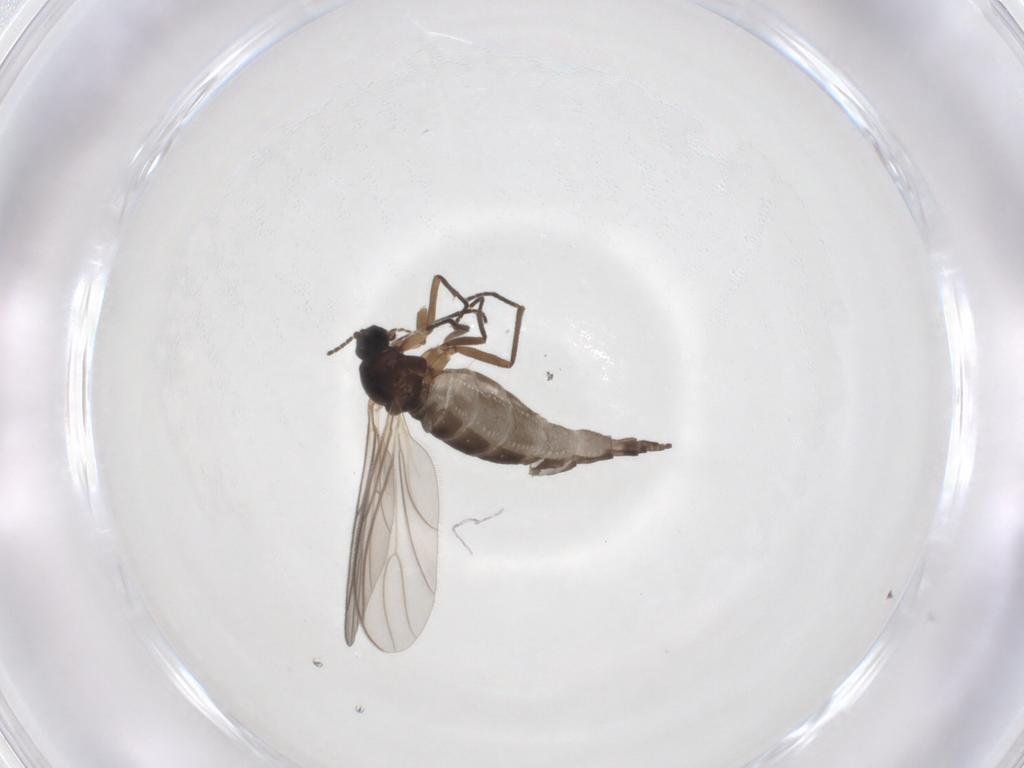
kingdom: Animalia
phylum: Arthropoda
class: Insecta
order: Diptera
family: Sciaridae
